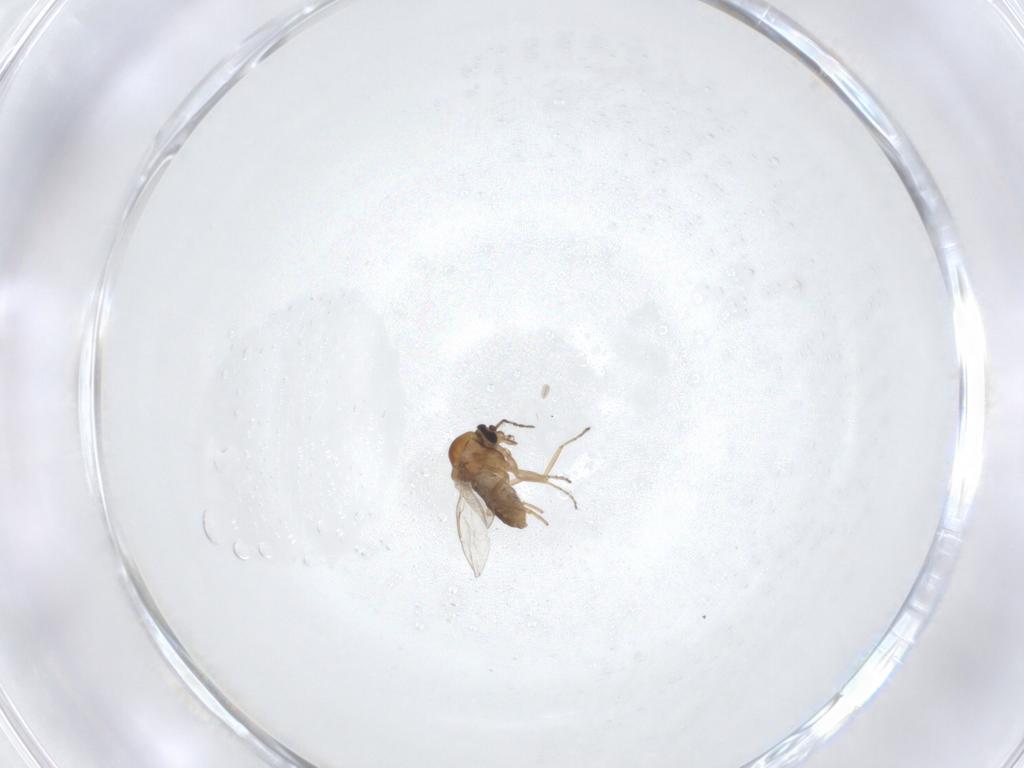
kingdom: Animalia
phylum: Arthropoda
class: Insecta
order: Diptera
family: Ceratopogonidae
